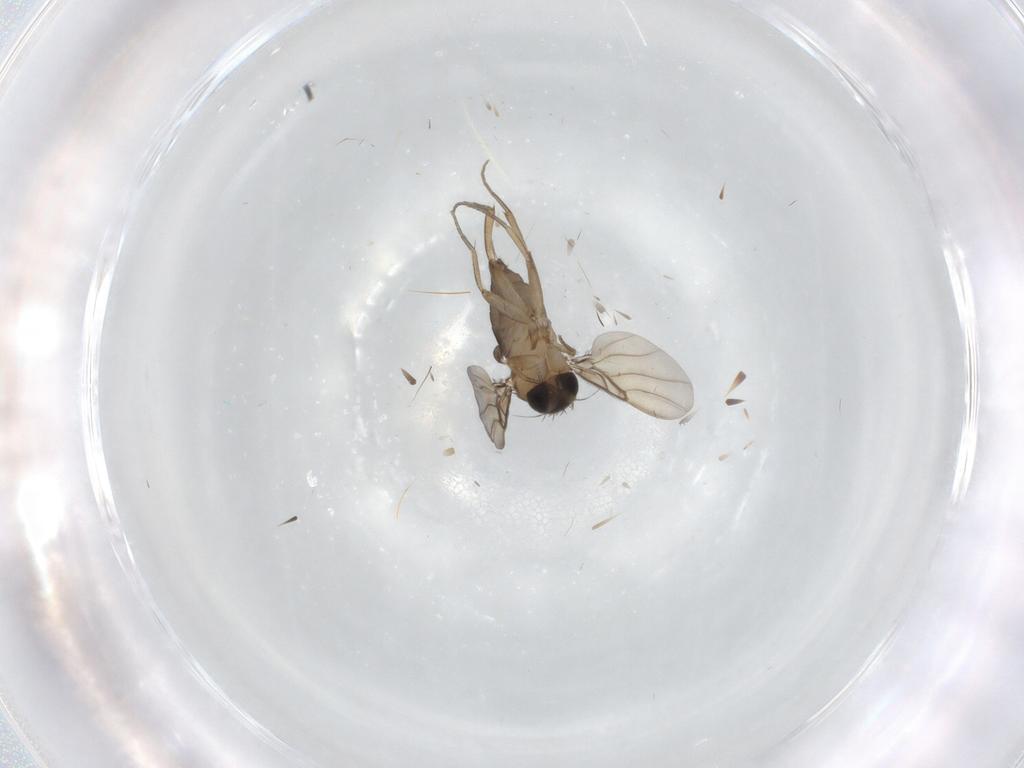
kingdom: Animalia
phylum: Arthropoda
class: Insecta
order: Diptera
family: Phoridae
